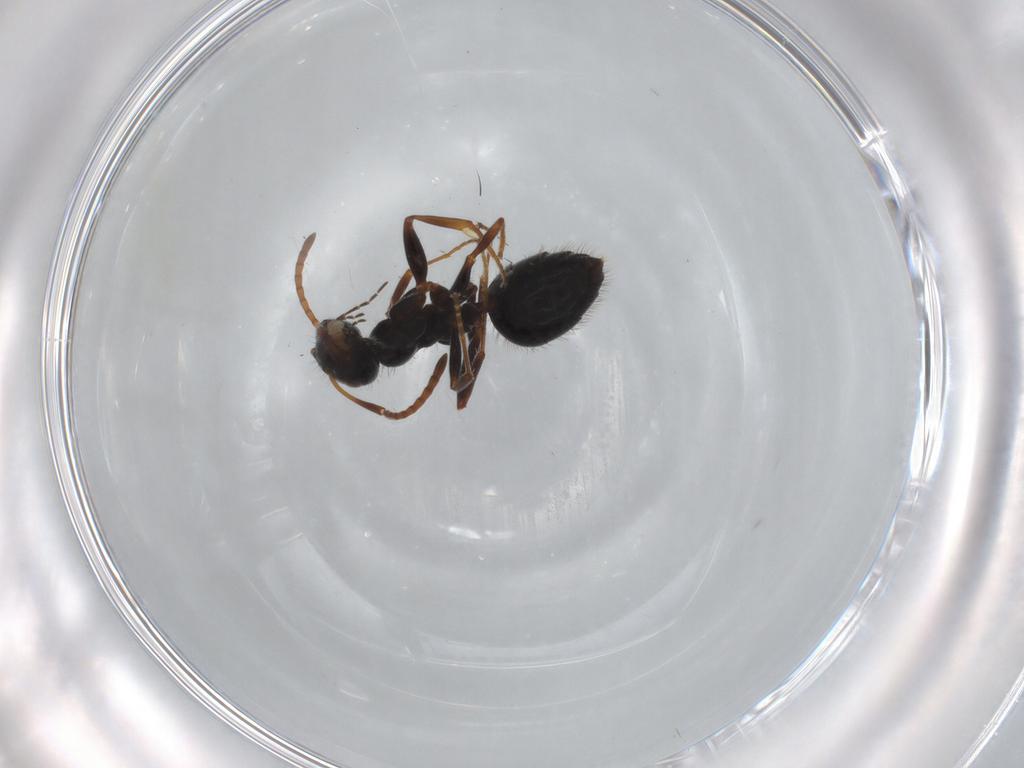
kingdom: Animalia
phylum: Arthropoda
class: Insecta
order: Hymenoptera
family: Formicidae
